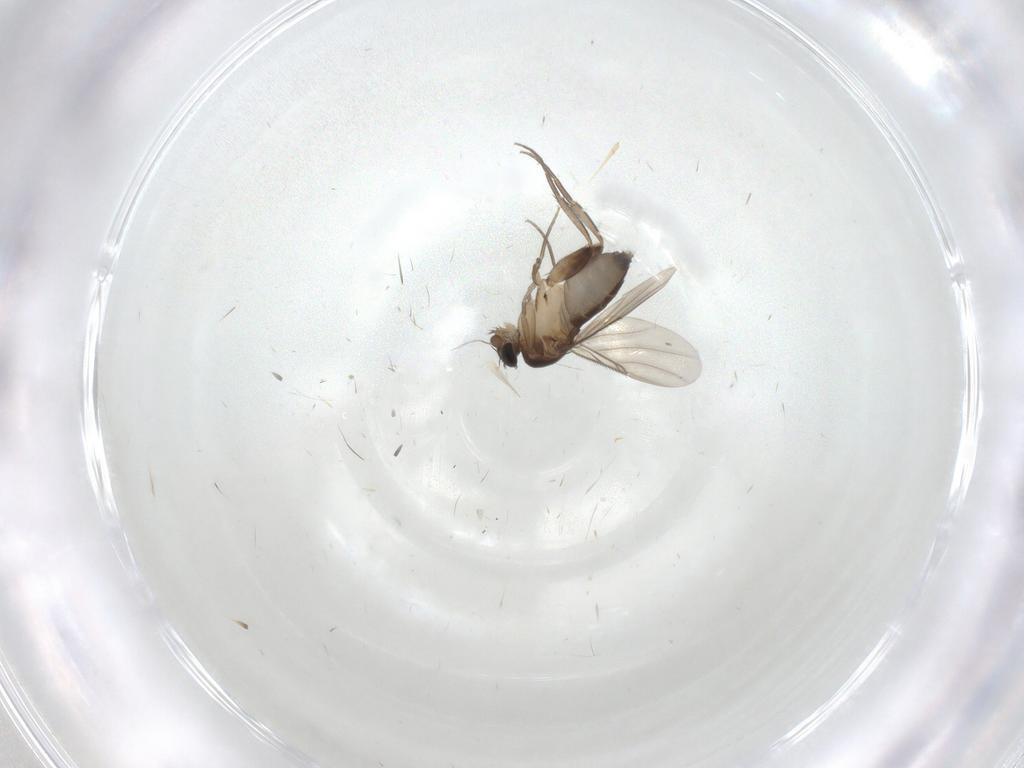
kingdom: Animalia
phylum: Arthropoda
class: Insecta
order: Diptera
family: Phoridae
